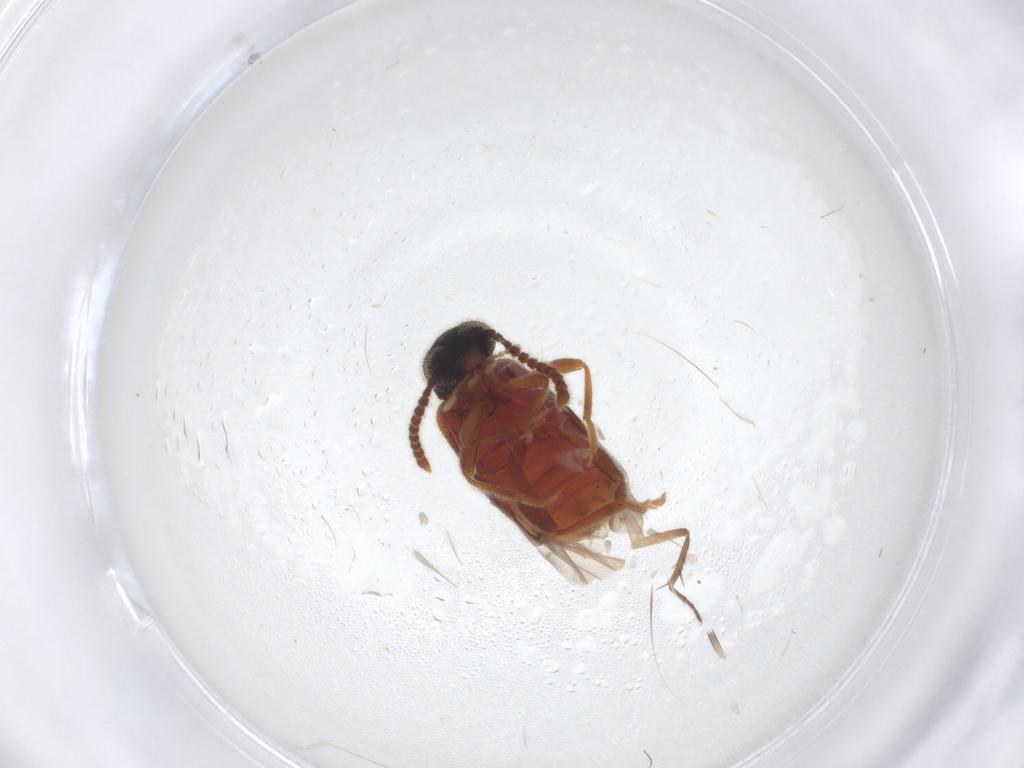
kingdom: Animalia
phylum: Arthropoda
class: Insecta
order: Coleoptera
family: Aderidae
